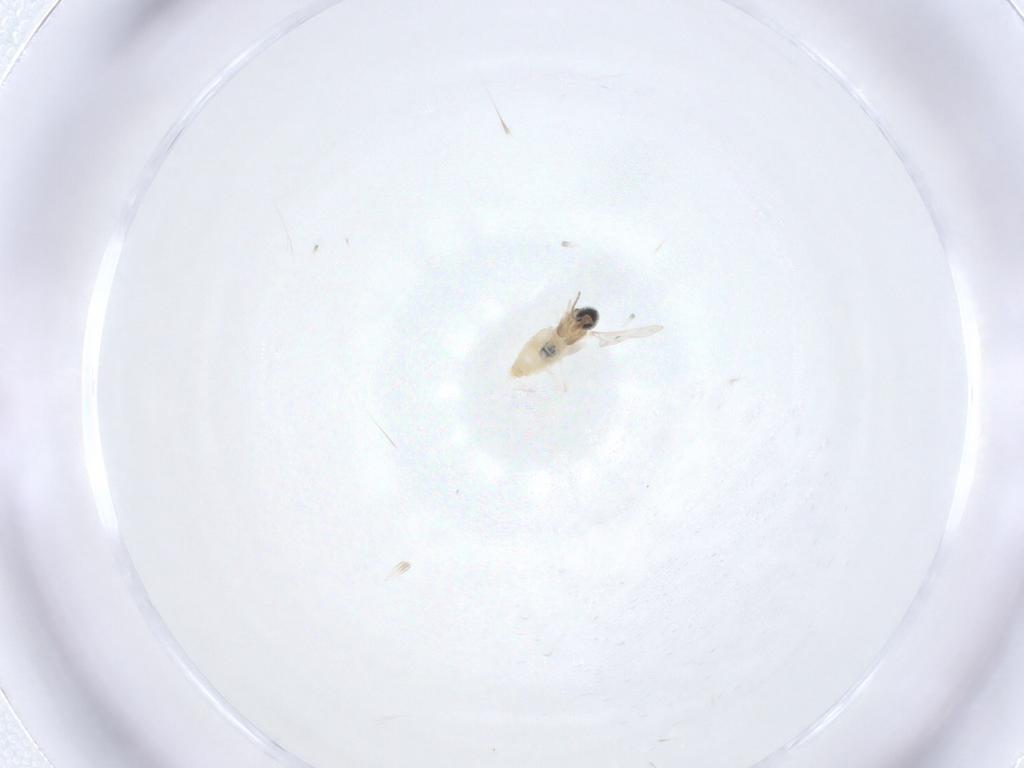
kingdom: Animalia
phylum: Arthropoda
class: Insecta
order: Diptera
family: Cecidomyiidae
